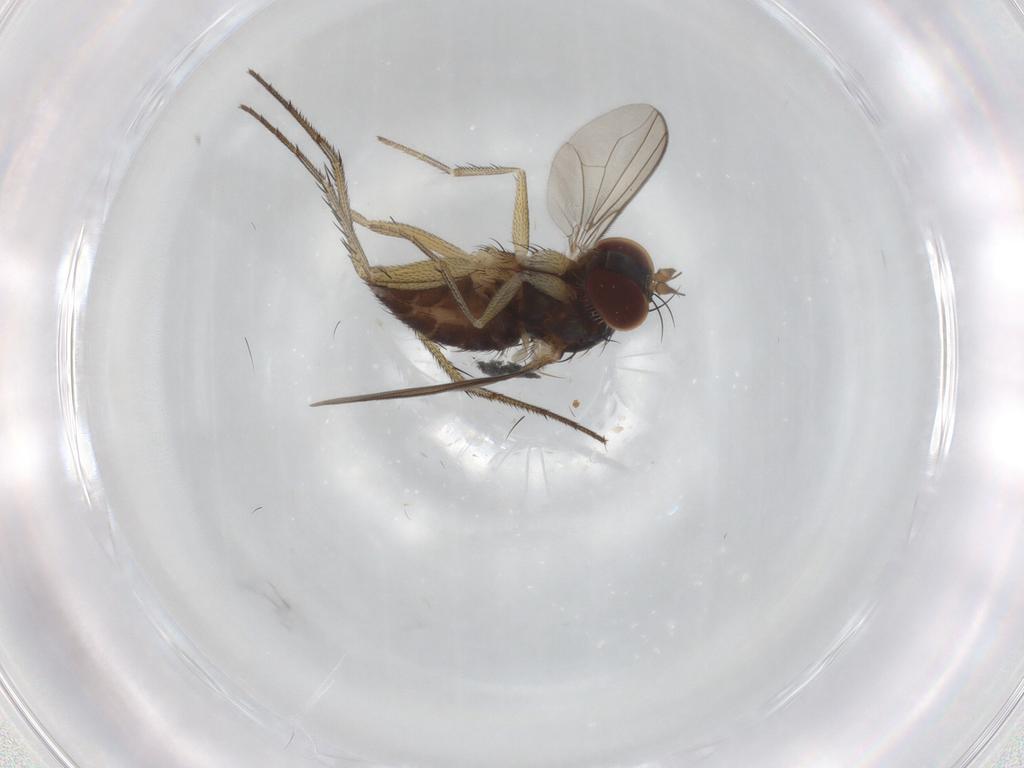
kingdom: Animalia
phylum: Arthropoda
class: Insecta
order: Diptera
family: Dolichopodidae
